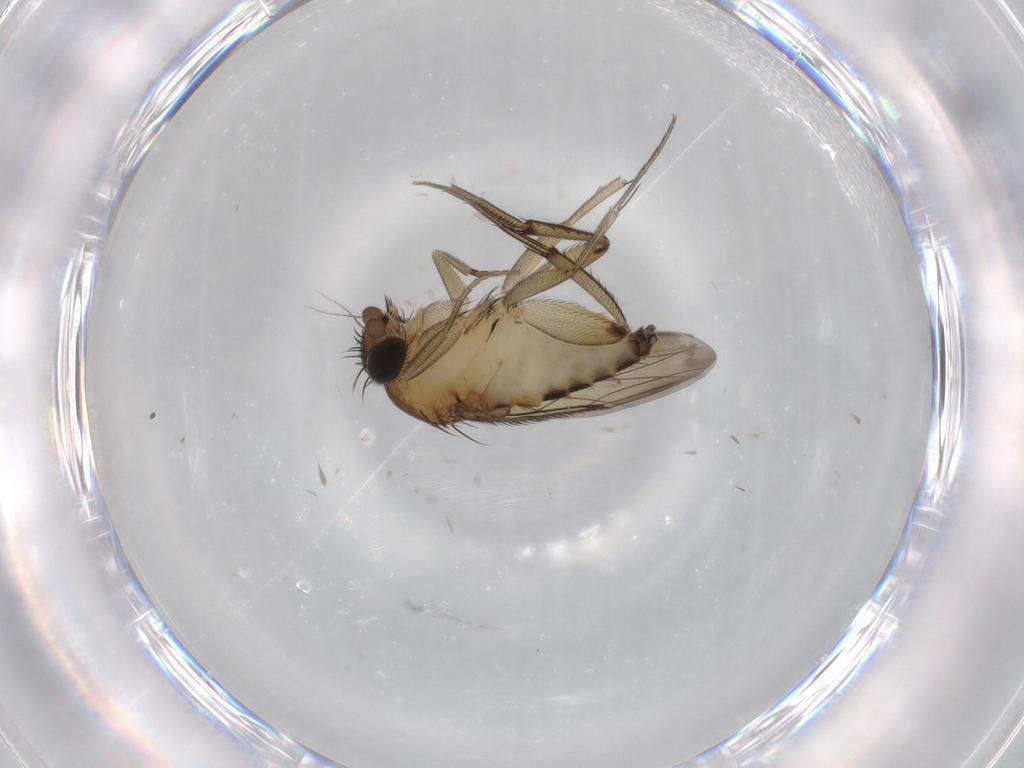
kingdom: Animalia
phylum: Arthropoda
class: Insecta
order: Diptera
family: Phoridae
